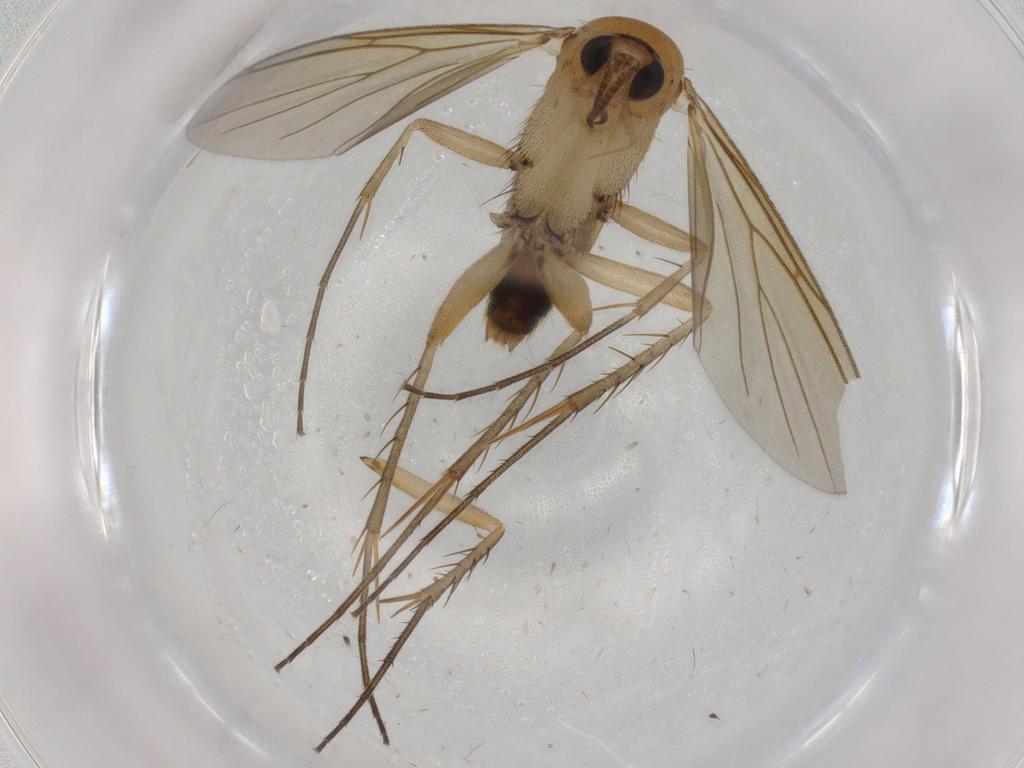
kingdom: Animalia
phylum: Arthropoda
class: Insecta
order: Diptera
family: Mycetophilidae
